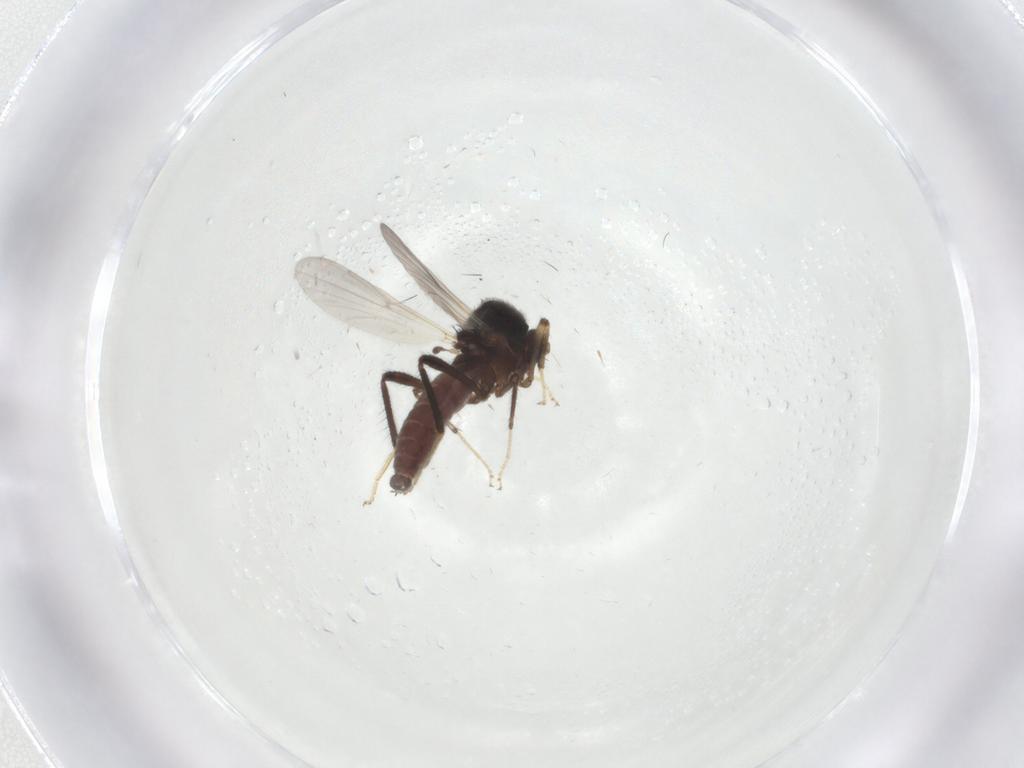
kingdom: Animalia
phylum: Arthropoda
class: Insecta
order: Diptera
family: Ceratopogonidae
